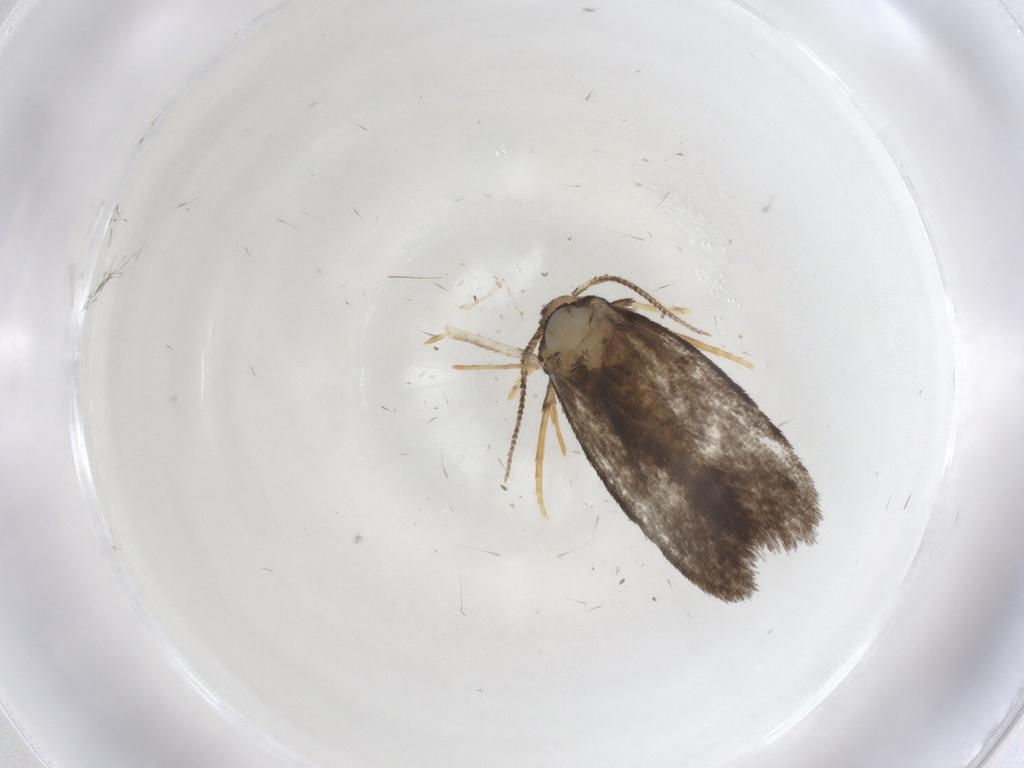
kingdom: Animalia
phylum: Arthropoda
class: Insecta
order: Lepidoptera
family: Psychidae
